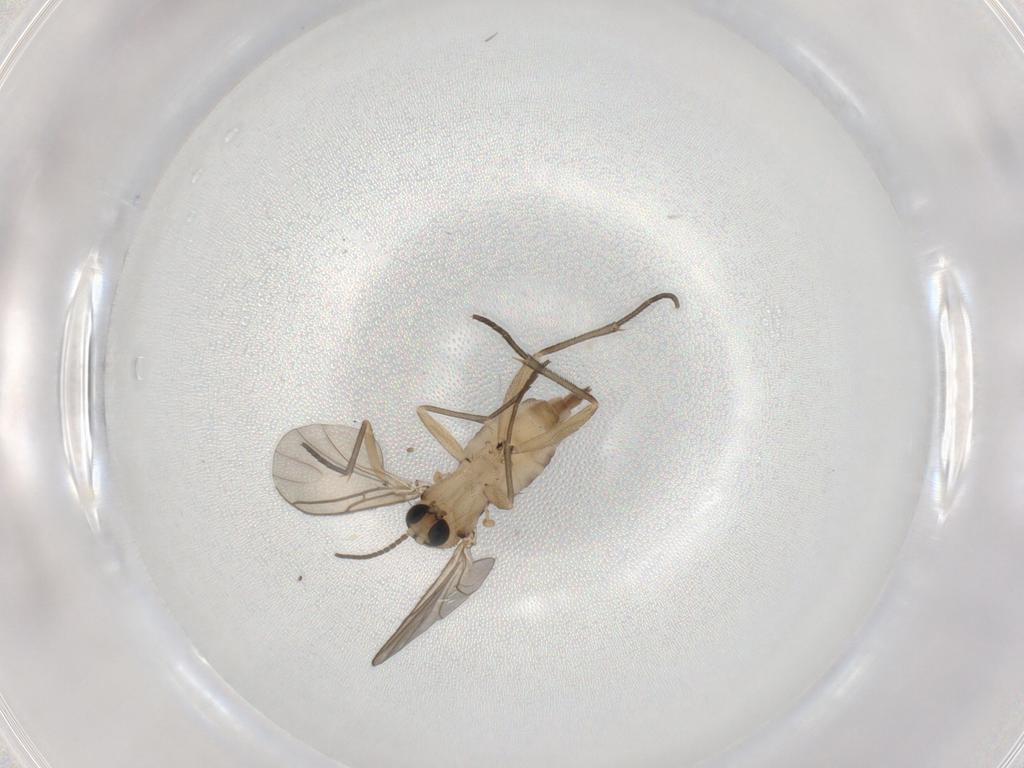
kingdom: Animalia
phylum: Arthropoda
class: Insecta
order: Diptera
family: Sciaridae
